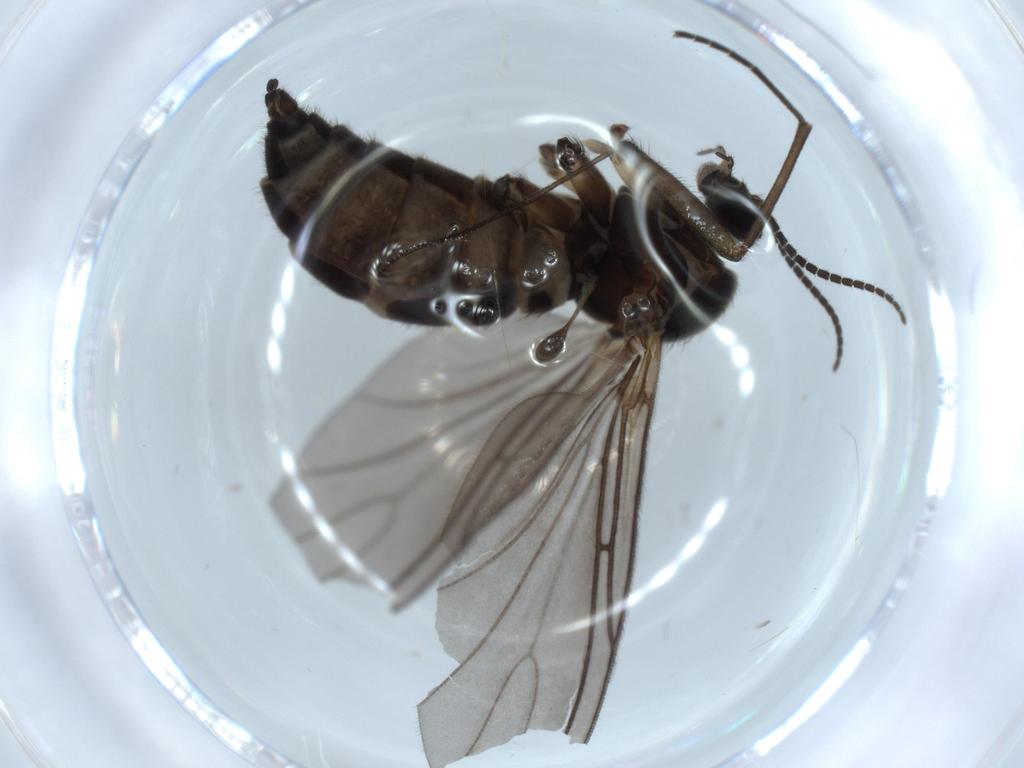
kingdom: Animalia
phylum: Arthropoda
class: Insecta
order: Diptera
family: Sciaridae
